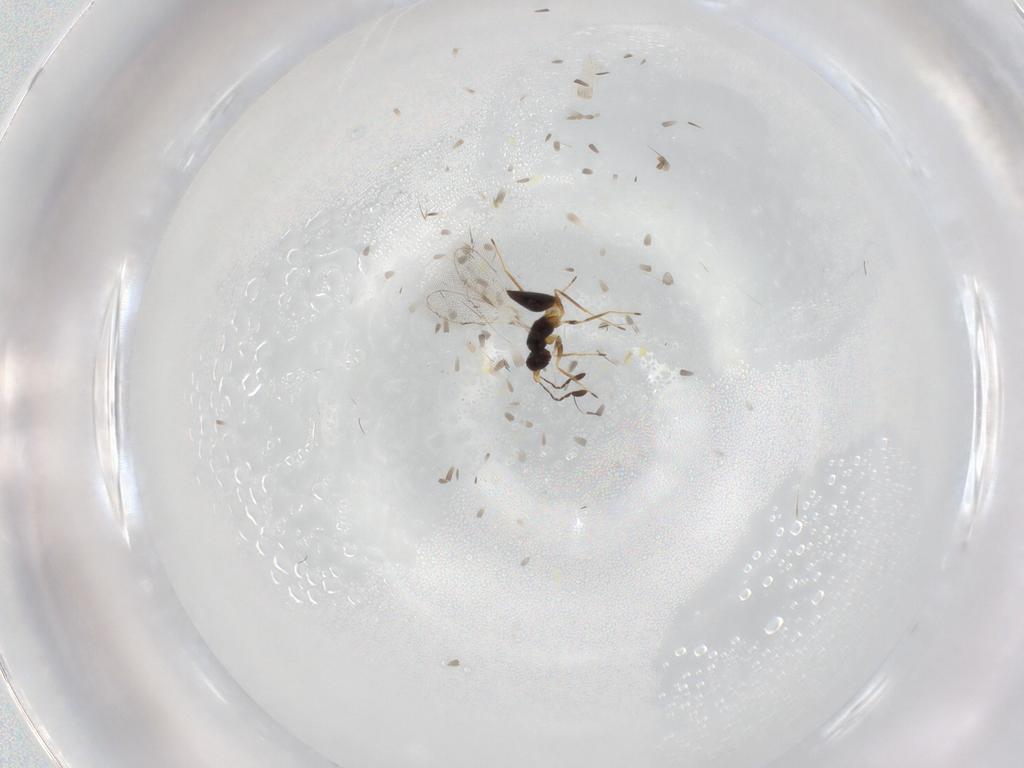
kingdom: Animalia
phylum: Arthropoda
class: Insecta
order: Hymenoptera
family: Mymaridae
